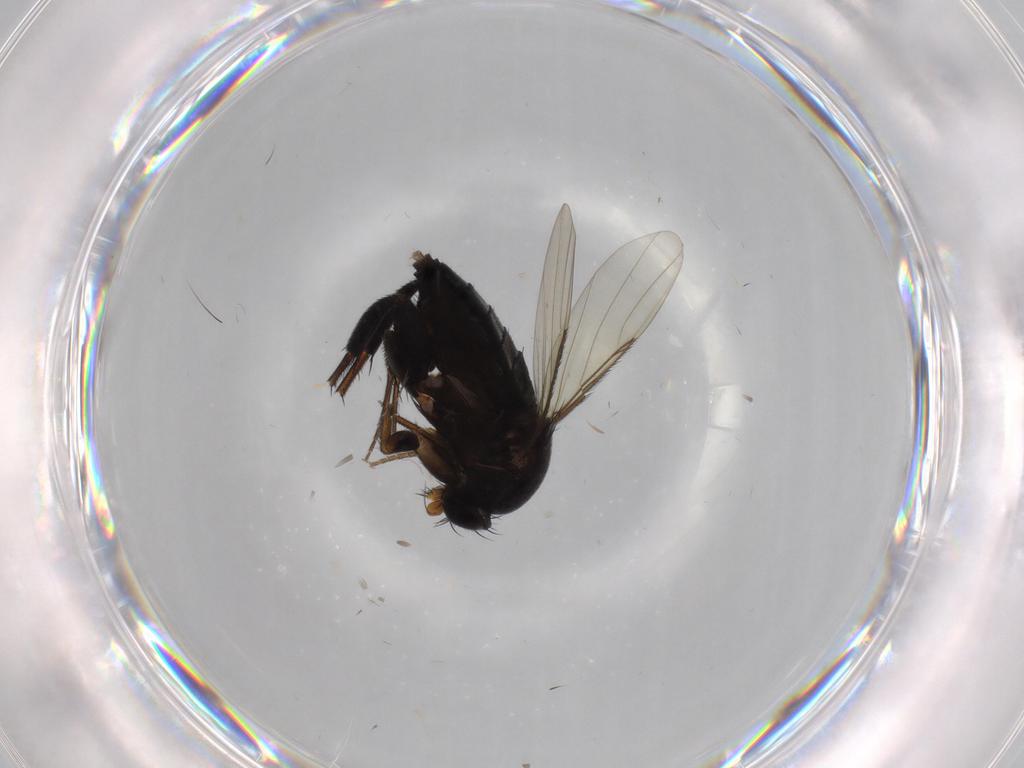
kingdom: Animalia
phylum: Arthropoda
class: Insecta
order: Diptera
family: Phoridae
